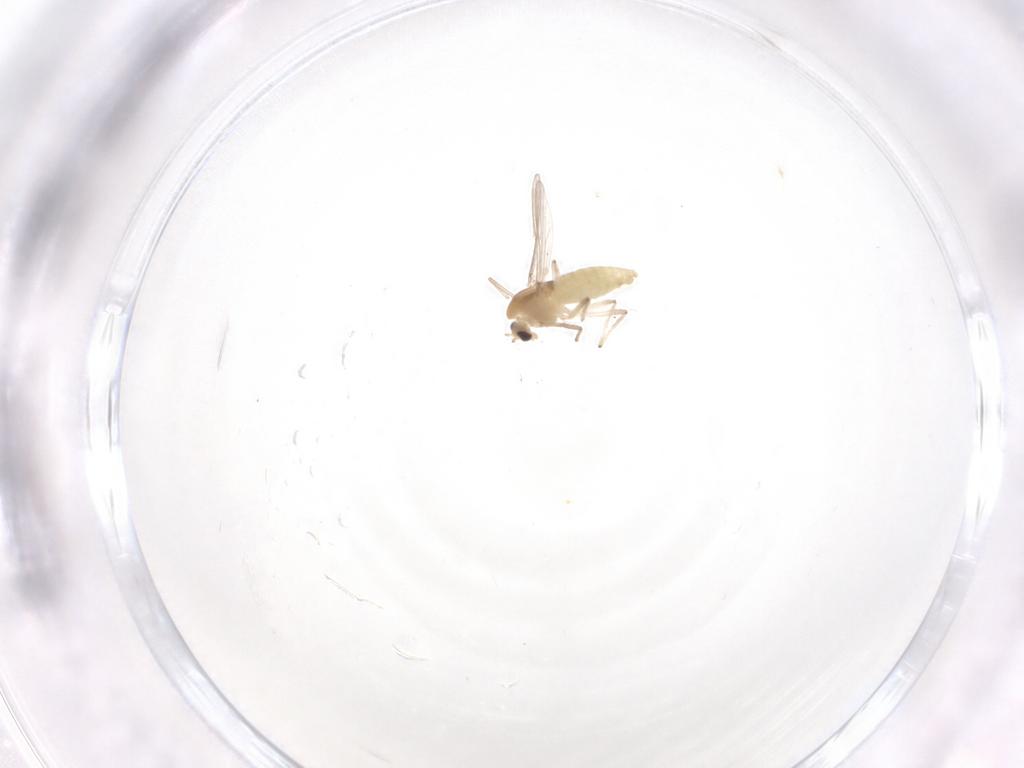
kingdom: Animalia
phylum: Arthropoda
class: Insecta
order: Diptera
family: Chironomidae
